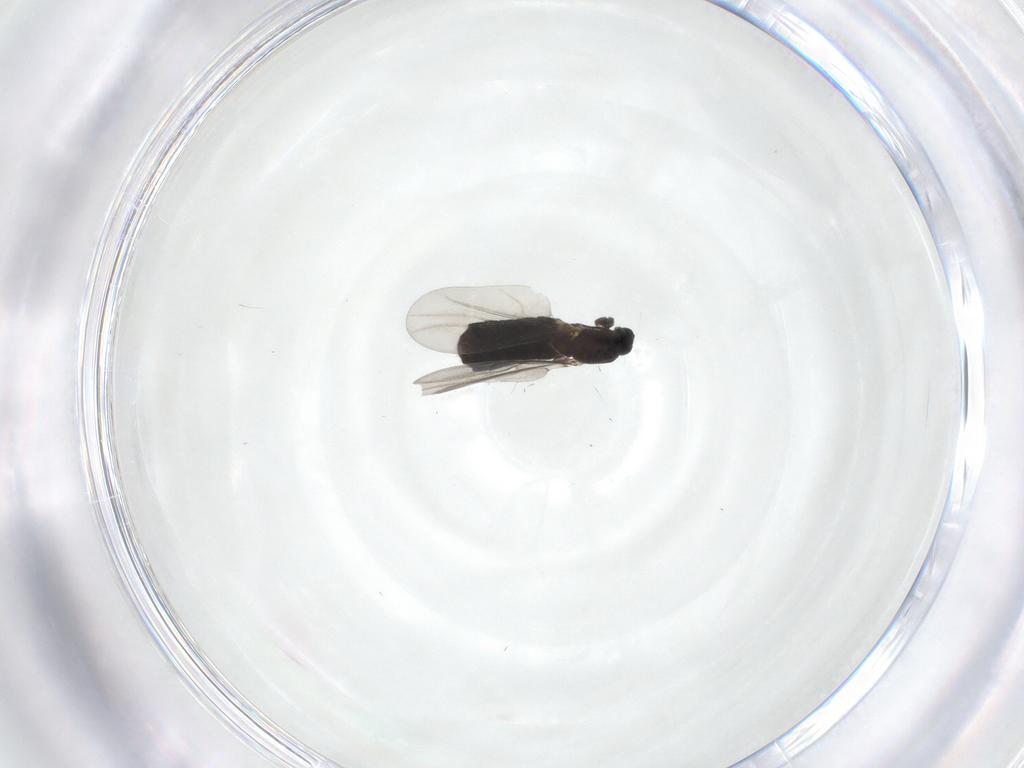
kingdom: Animalia
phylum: Arthropoda
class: Insecta
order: Diptera
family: Scatopsidae
